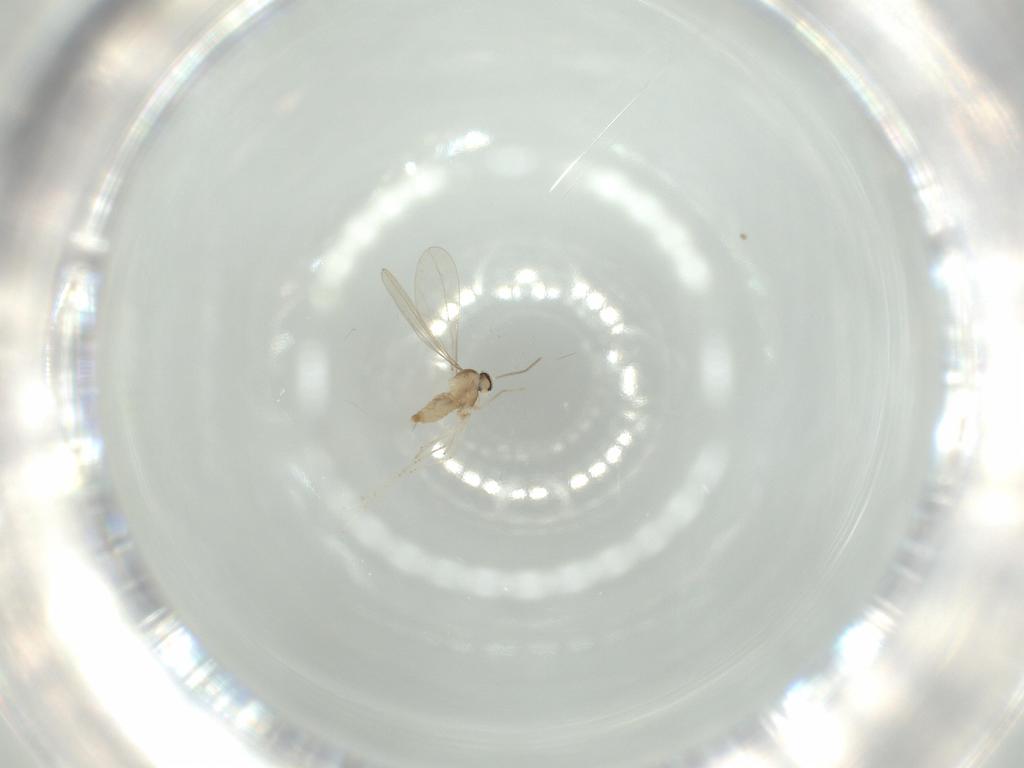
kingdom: Animalia
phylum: Arthropoda
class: Insecta
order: Diptera
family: Cecidomyiidae
